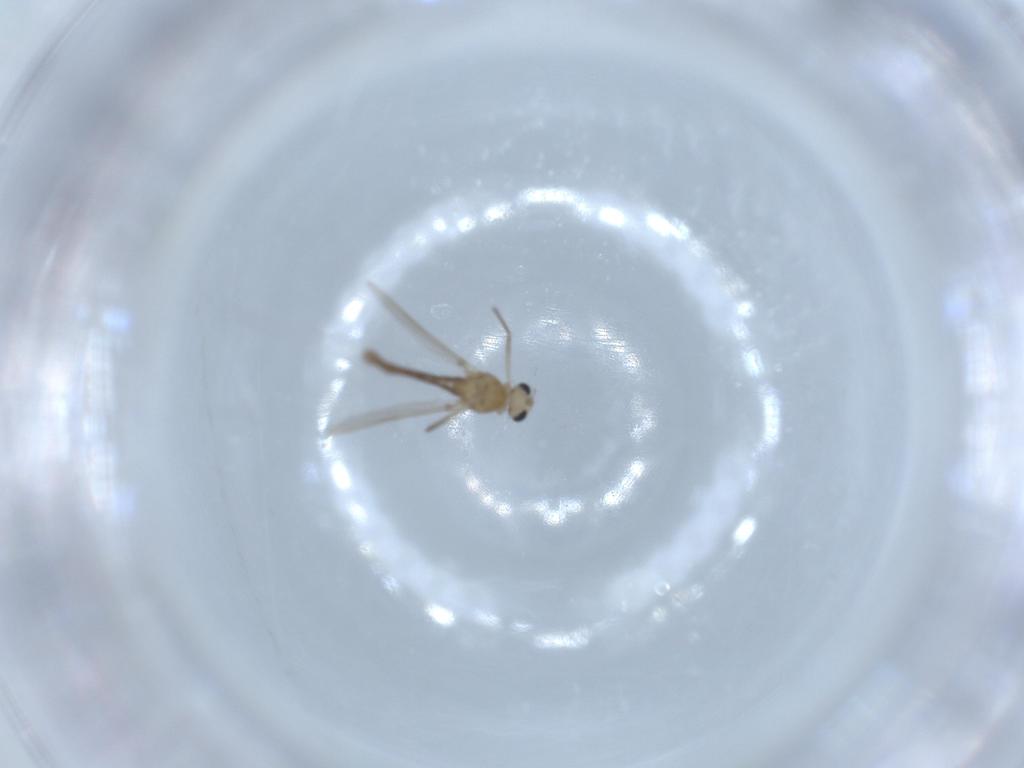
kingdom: Animalia
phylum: Arthropoda
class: Insecta
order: Diptera
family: Chironomidae
